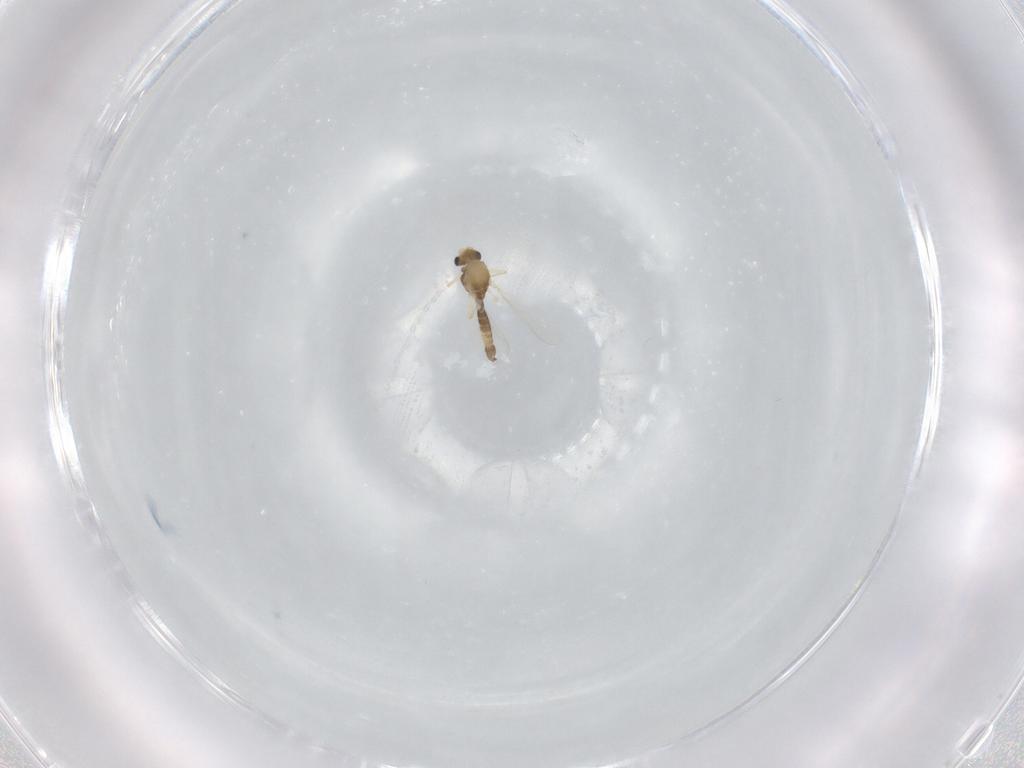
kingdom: Animalia
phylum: Arthropoda
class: Insecta
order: Diptera
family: Chironomidae
